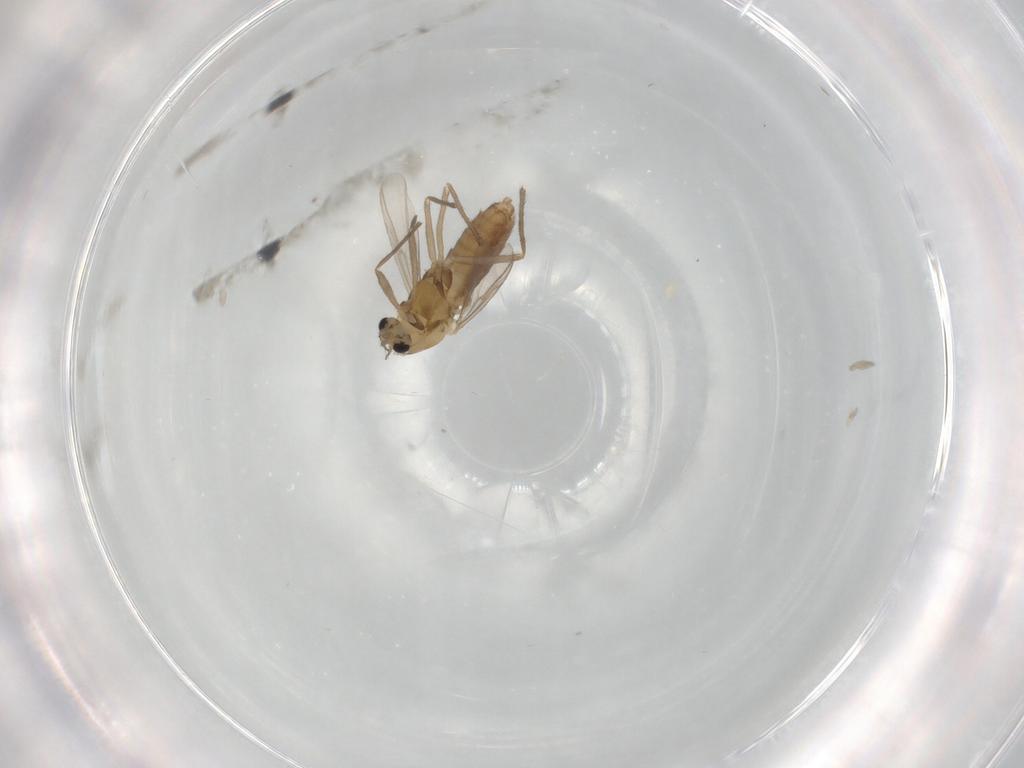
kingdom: Animalia
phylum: Arthropoda
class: Insecta
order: Diptera
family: Chironomidae
